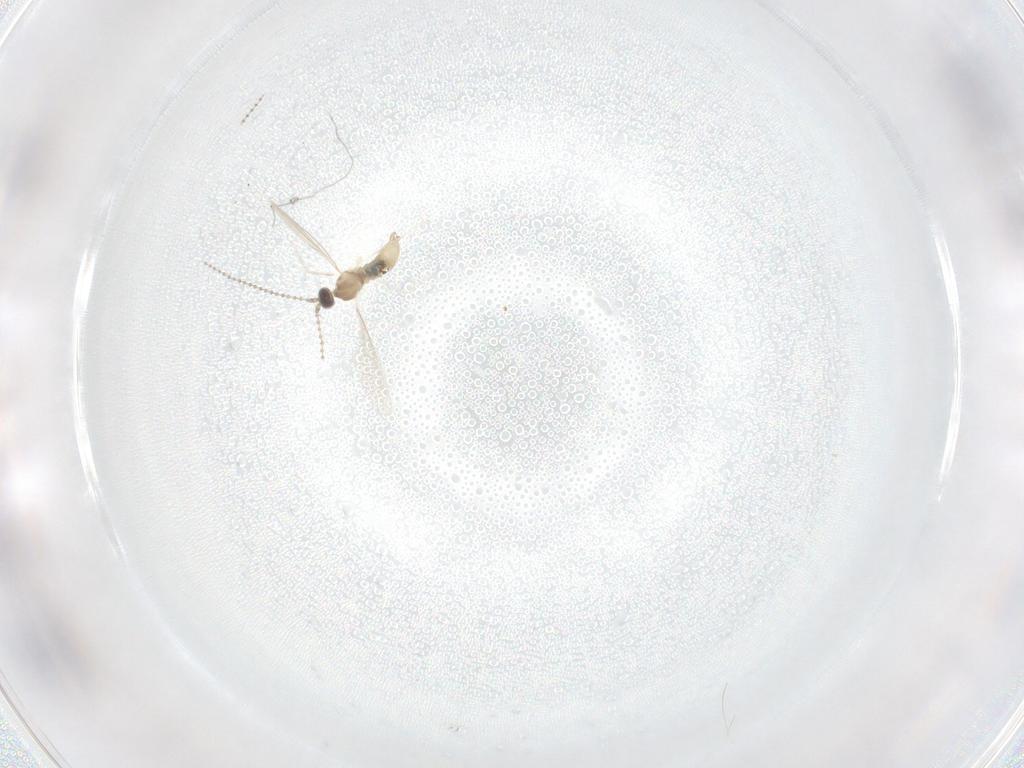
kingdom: Animalia
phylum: Arthropoda
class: Insecta
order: Diptera
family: Cecidomyiidae
